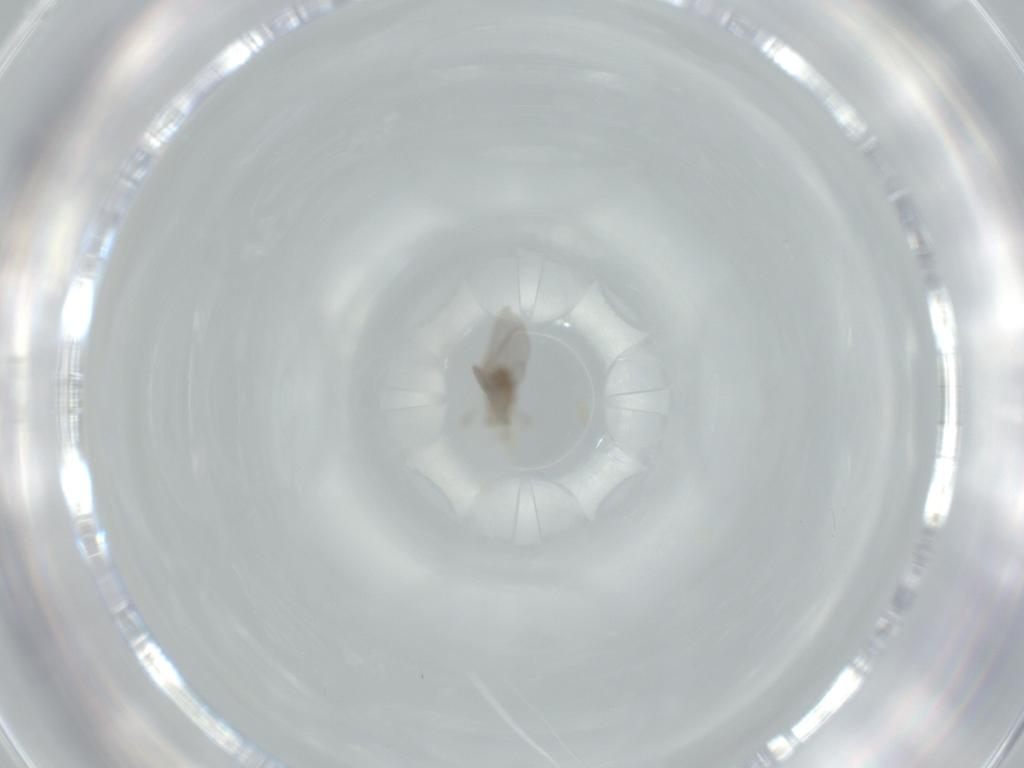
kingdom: Animalia
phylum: Arthropoda
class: Insecta
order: Diptera
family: Cecidomyiidae
